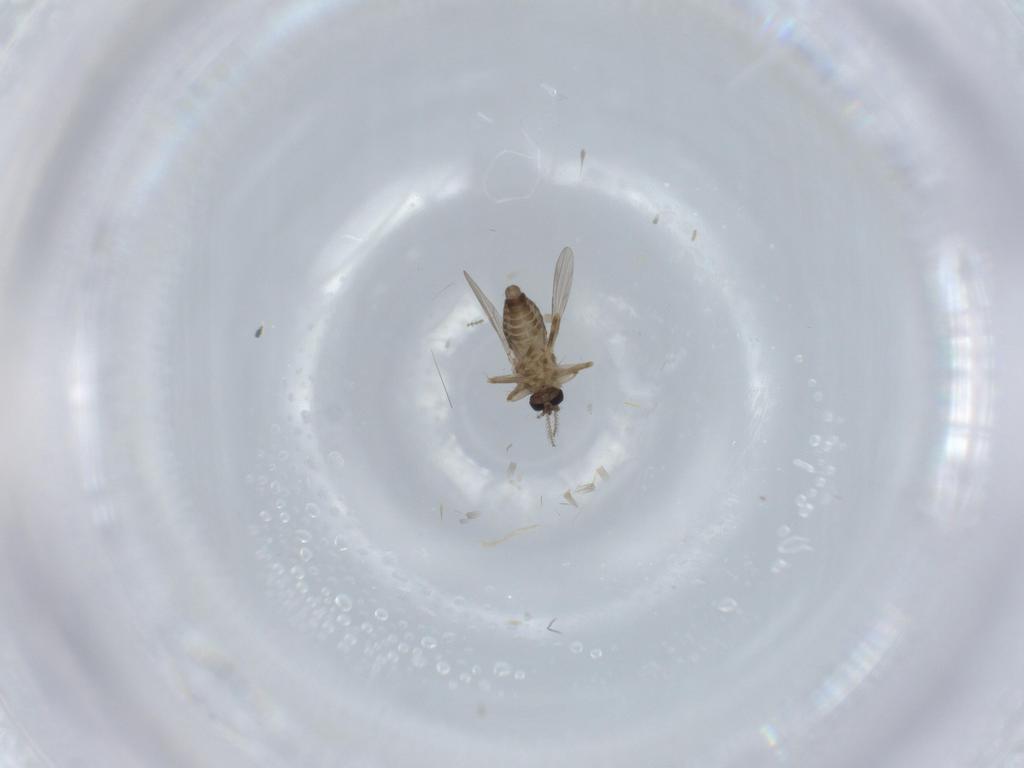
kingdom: Animalia
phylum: Arthropoda
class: Insecta
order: Diptera
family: Ceratopogonidae
